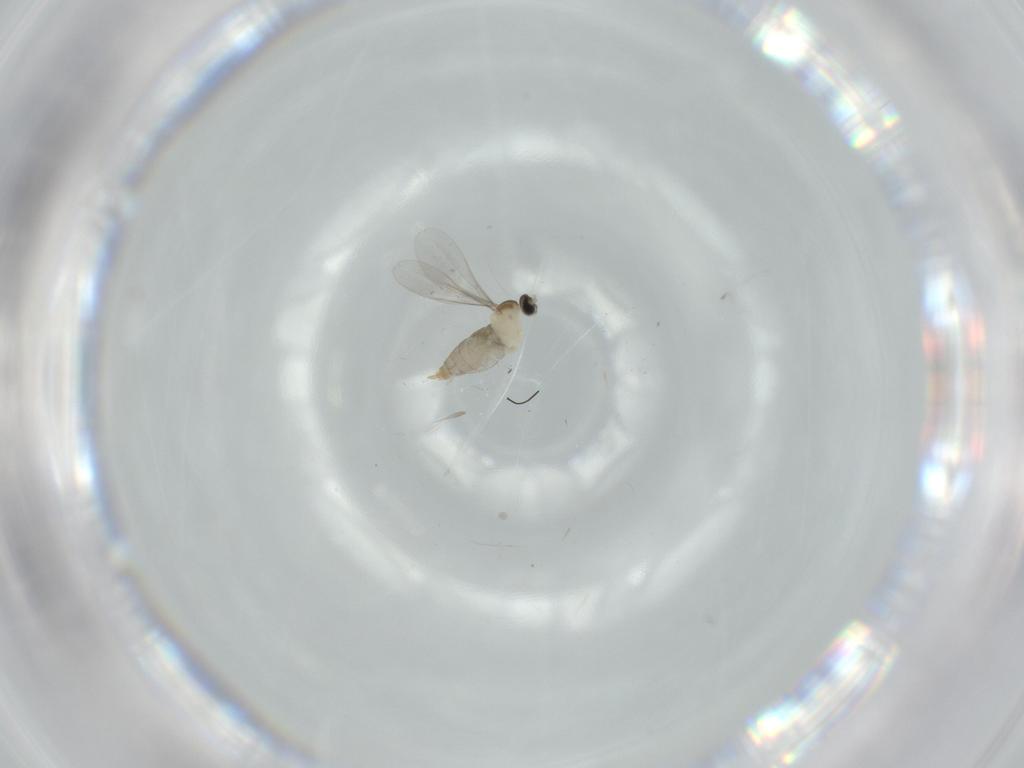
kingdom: Animalia
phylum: Arthropoda
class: Insecta
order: Diptera
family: Phoridae
